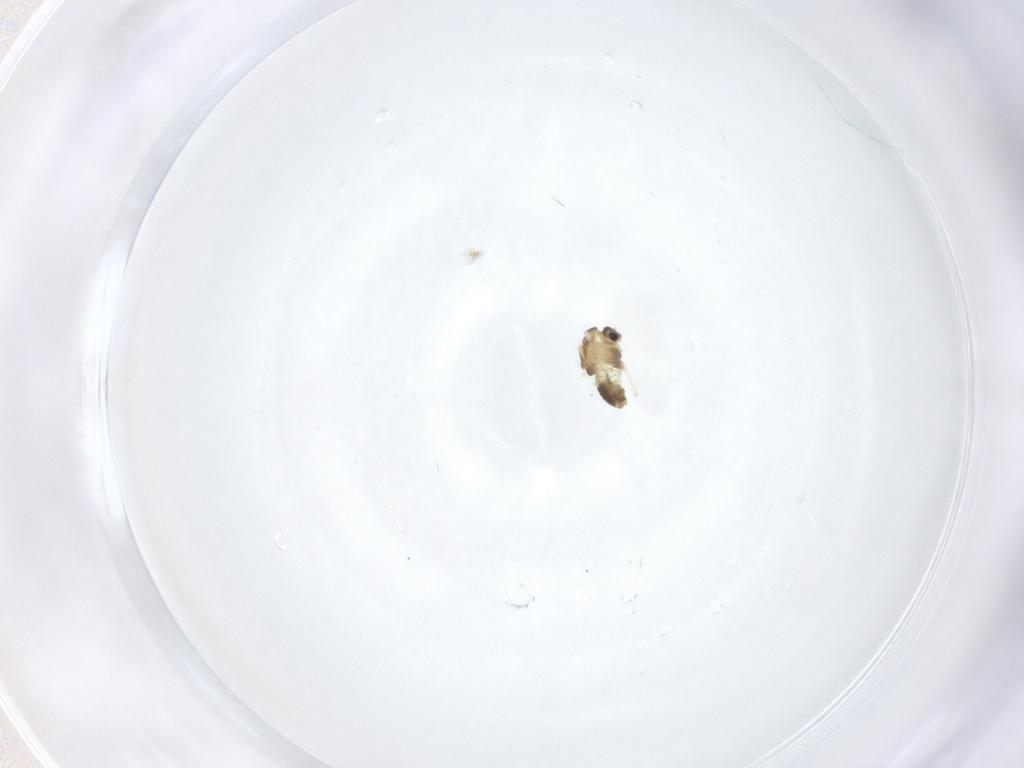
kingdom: Animalia
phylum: Arthropoda
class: Insecta
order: Diptera
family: Chironomidae
